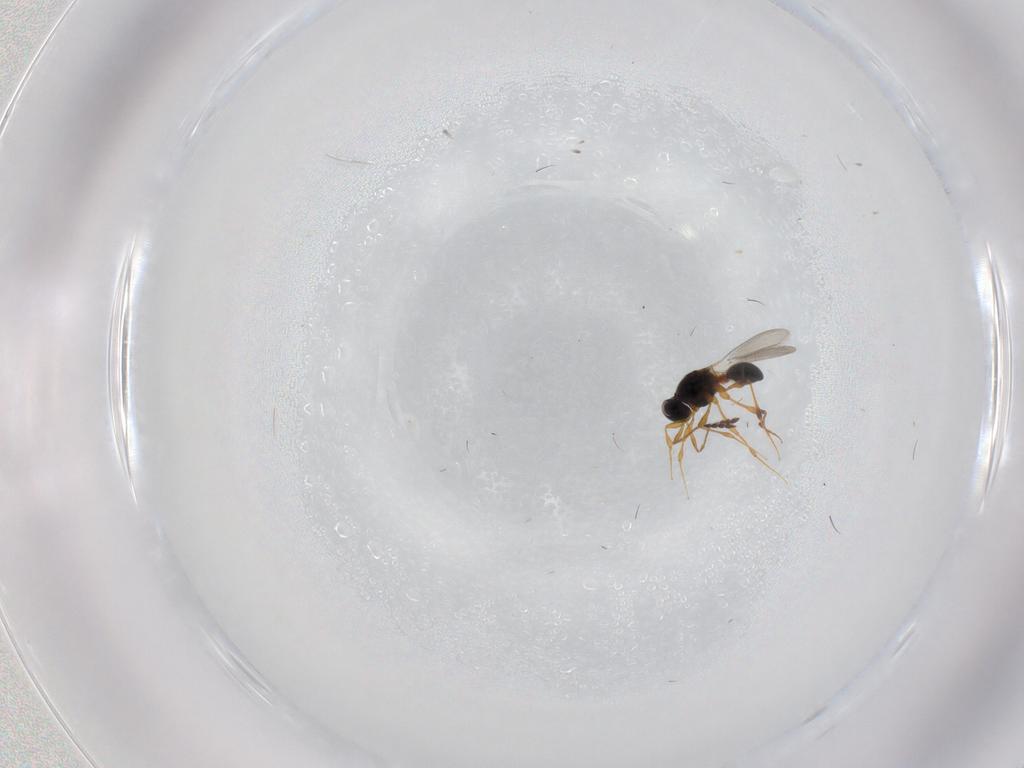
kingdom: Animalia
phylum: Arthropoda
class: Insecta
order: Hymenoptera
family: Platygastridae
